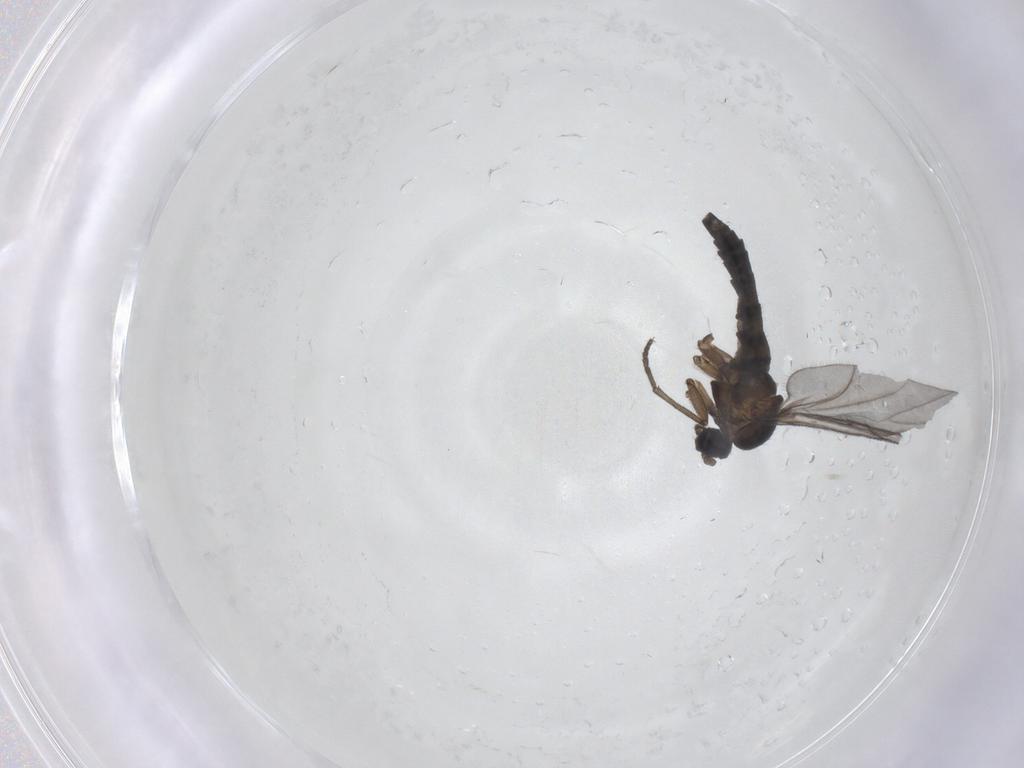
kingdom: Animalia
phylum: Arthropoda
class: Insecta
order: Diptera
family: Sciaridae
